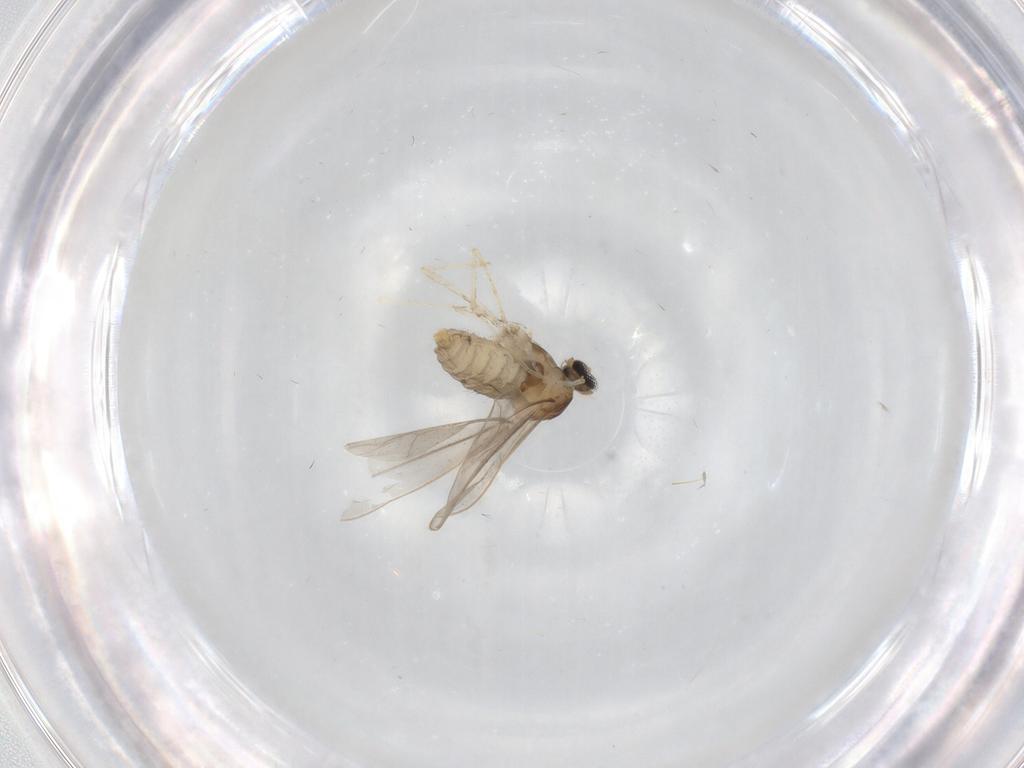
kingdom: Animalia
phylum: Arthropoda
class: Insecta
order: Diptera
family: Cecidomyiidae
